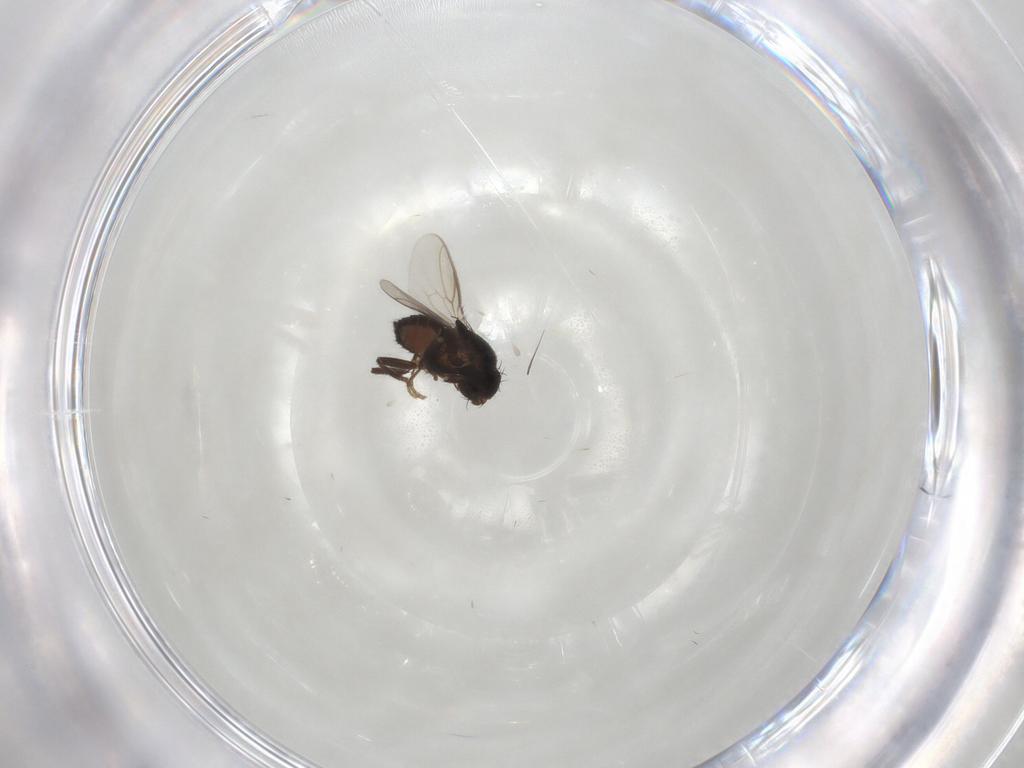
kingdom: Animalia
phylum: Arthropoda
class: Insecta
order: Diptera
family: Sphaeroceridae
